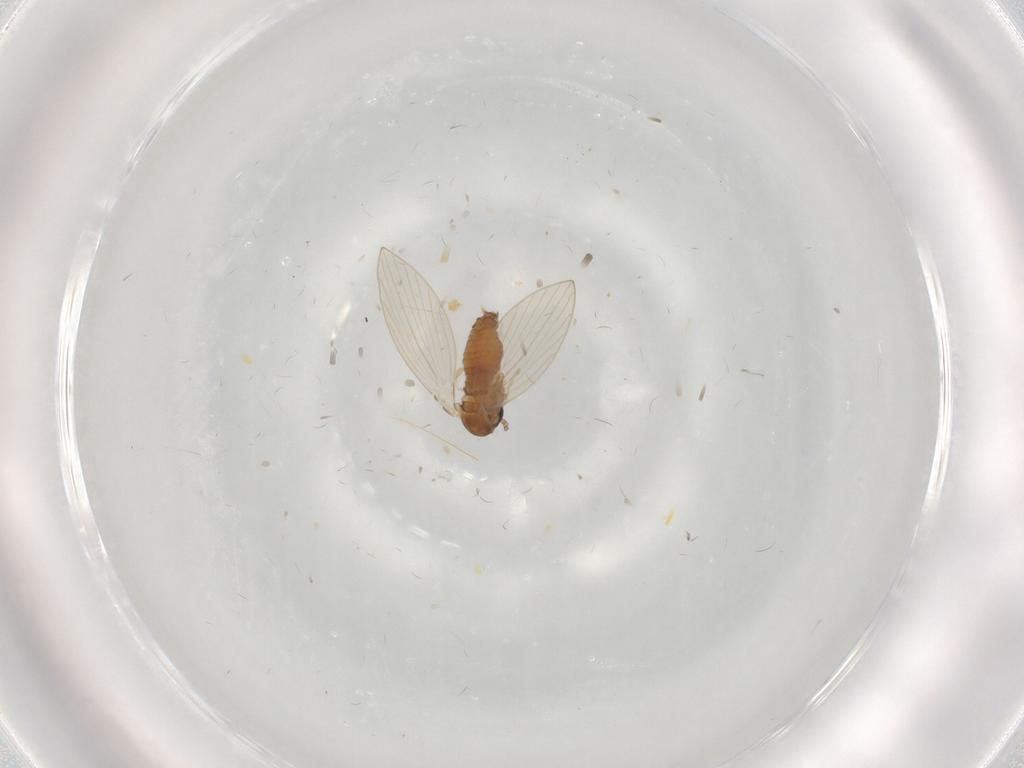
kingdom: Animalia
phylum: Arthropoda
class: Insecta
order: Diptera
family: Psychodidae
